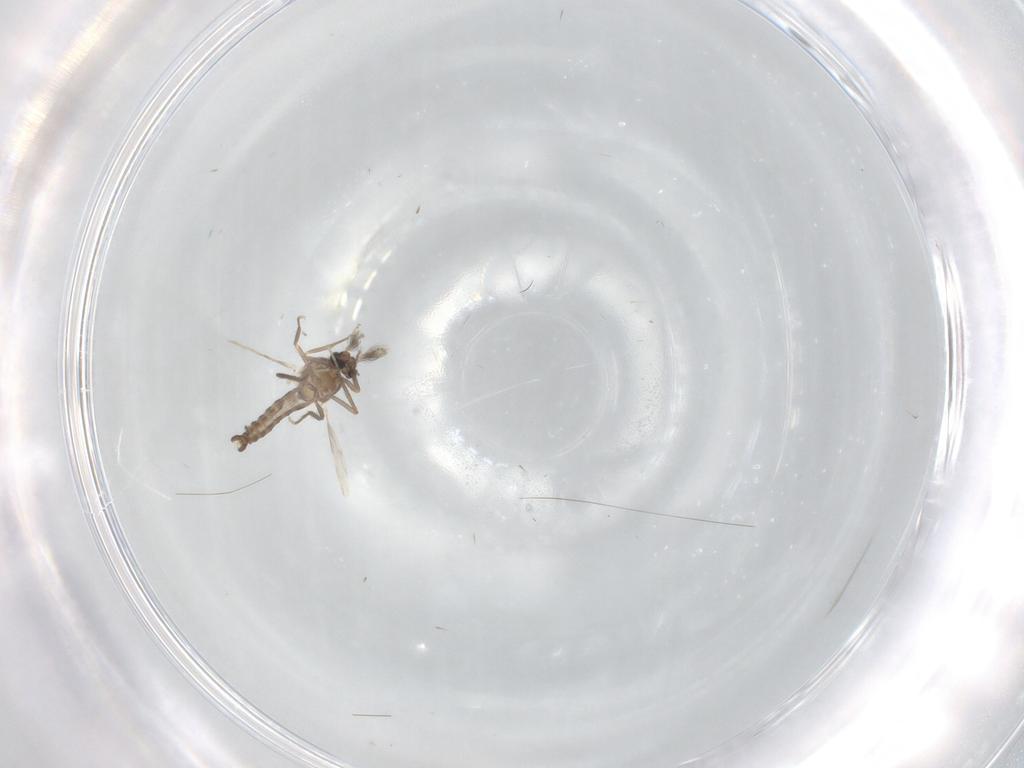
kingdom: Animalia
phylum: Arthropoda
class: Insecta
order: Diptera
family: Ceratopogonidae
